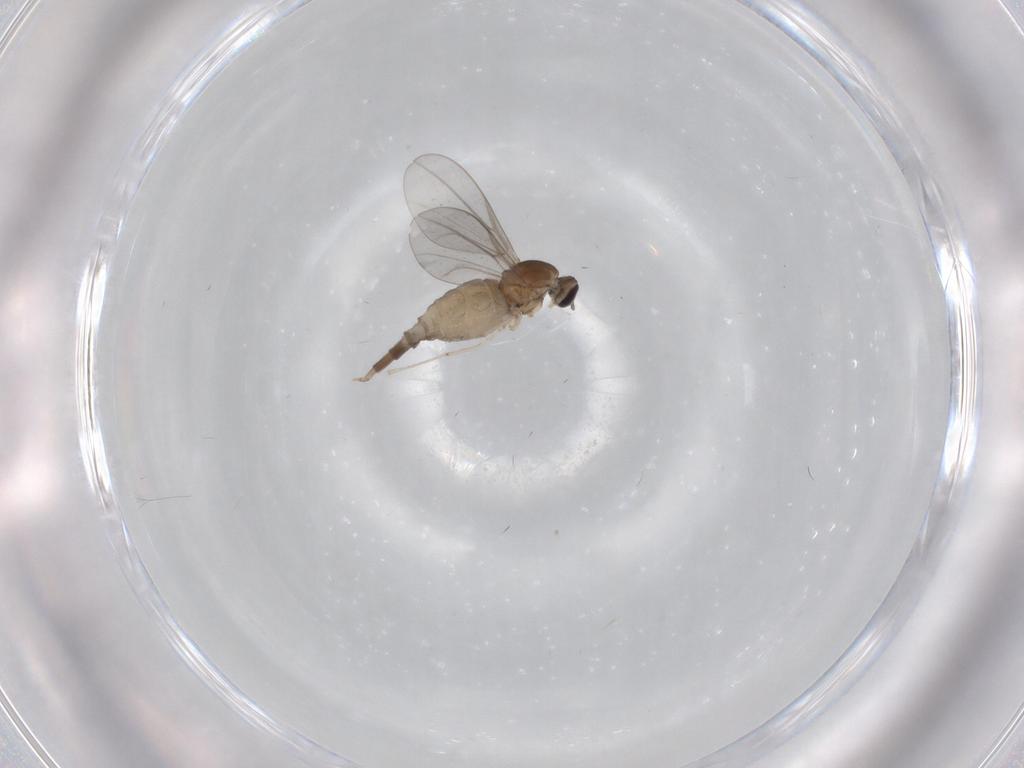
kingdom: Animalia
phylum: Arthropoda
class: Insecta
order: Diptera
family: Cecidomyiidae
